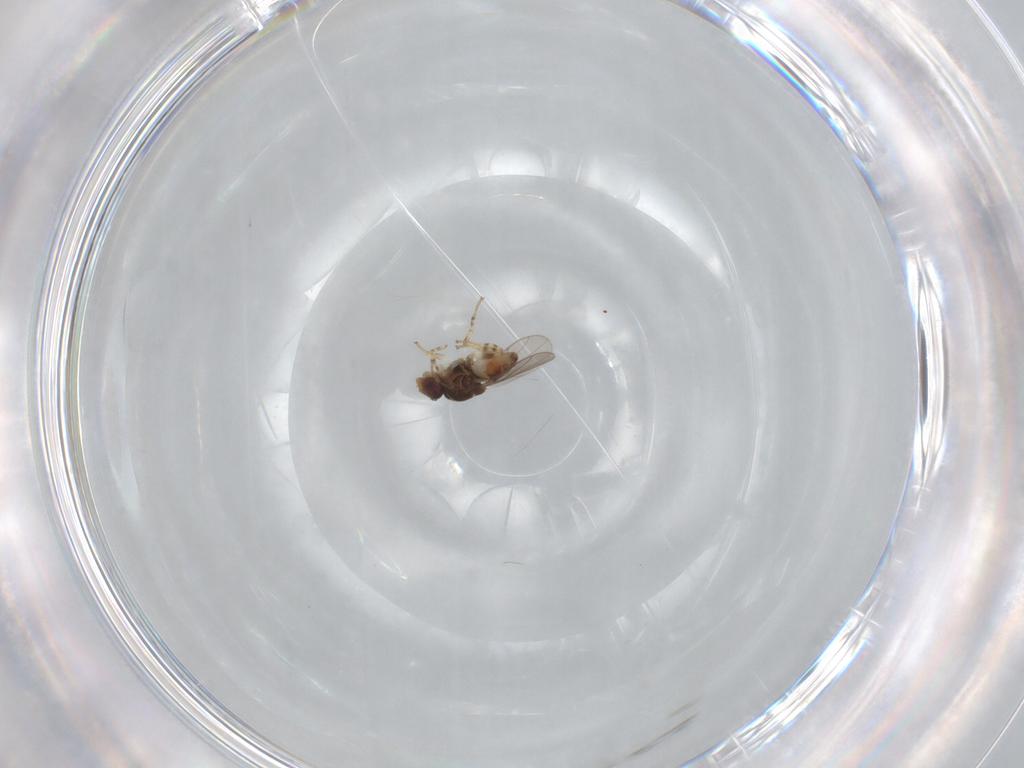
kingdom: Animalia
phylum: Arthropoda
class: Insecta
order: Diptera
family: Chloropidae
